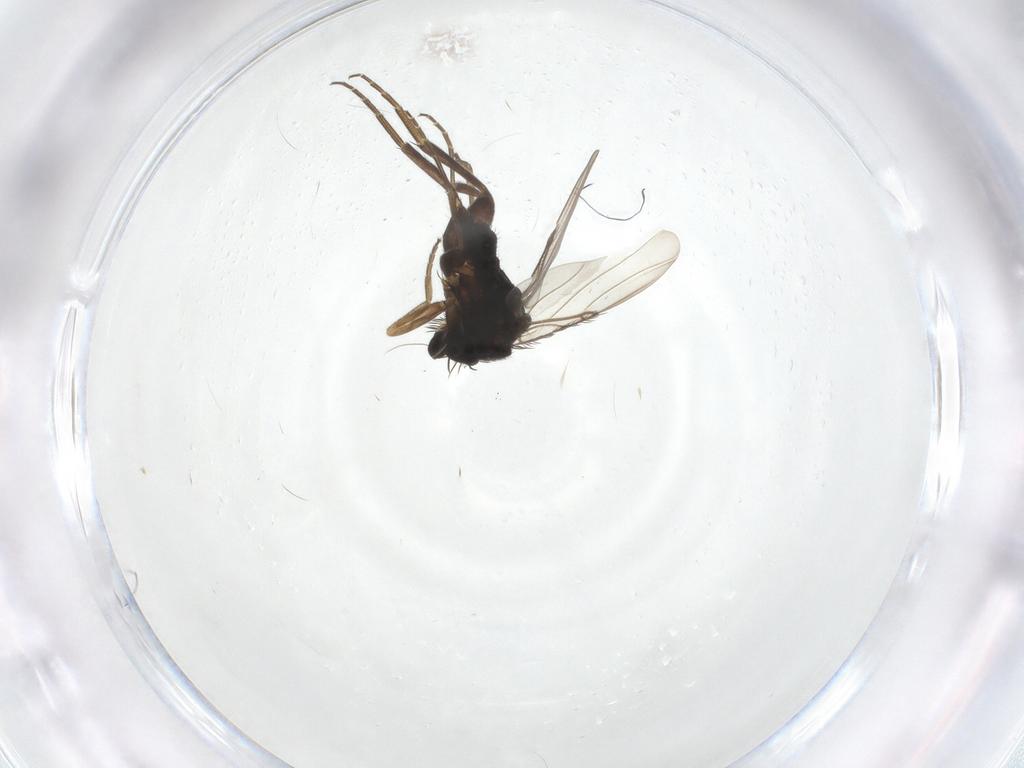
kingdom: Animalia
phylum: Arthropoda
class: Insecta
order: Diptera
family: Phoridae
